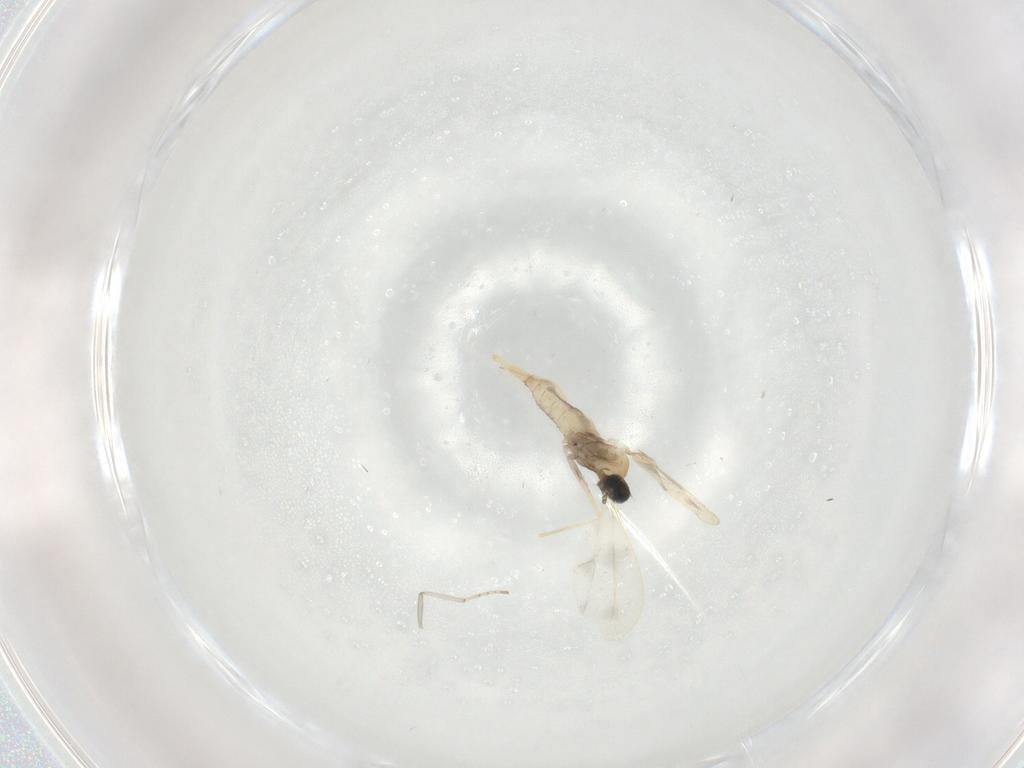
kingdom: Animalia
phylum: Arthropoda
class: Insecta
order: Diptera
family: Cecidomyiidae
